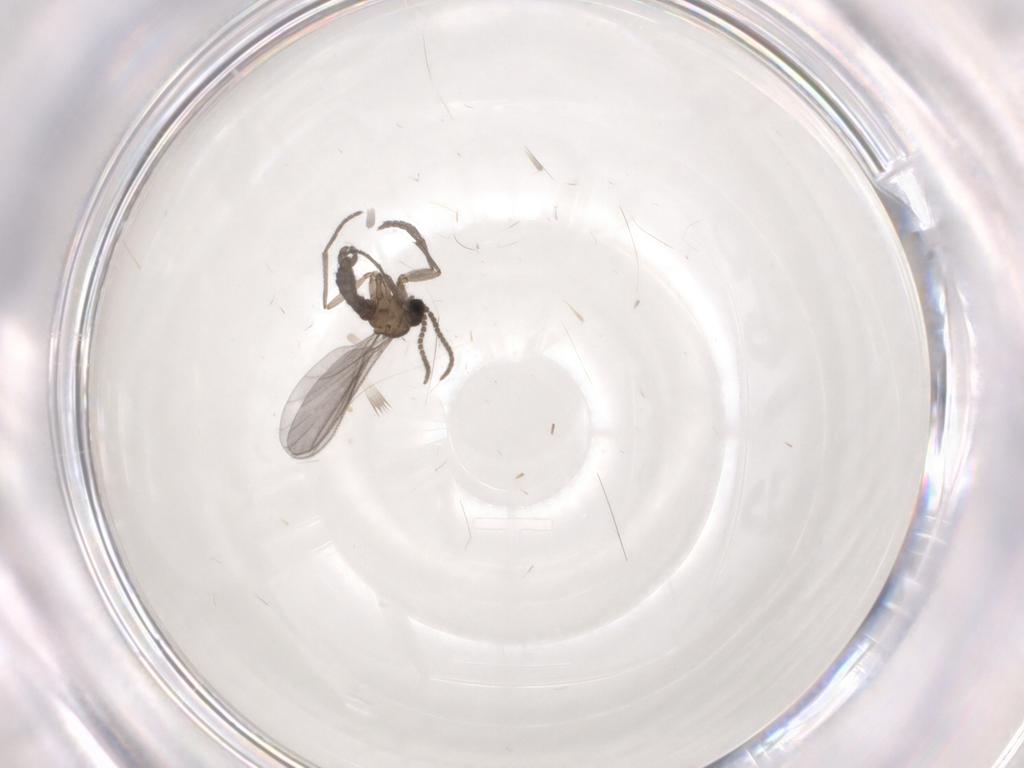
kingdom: Animalia
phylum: Arthropoda
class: Insecta
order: Diptera
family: Sciaridae
